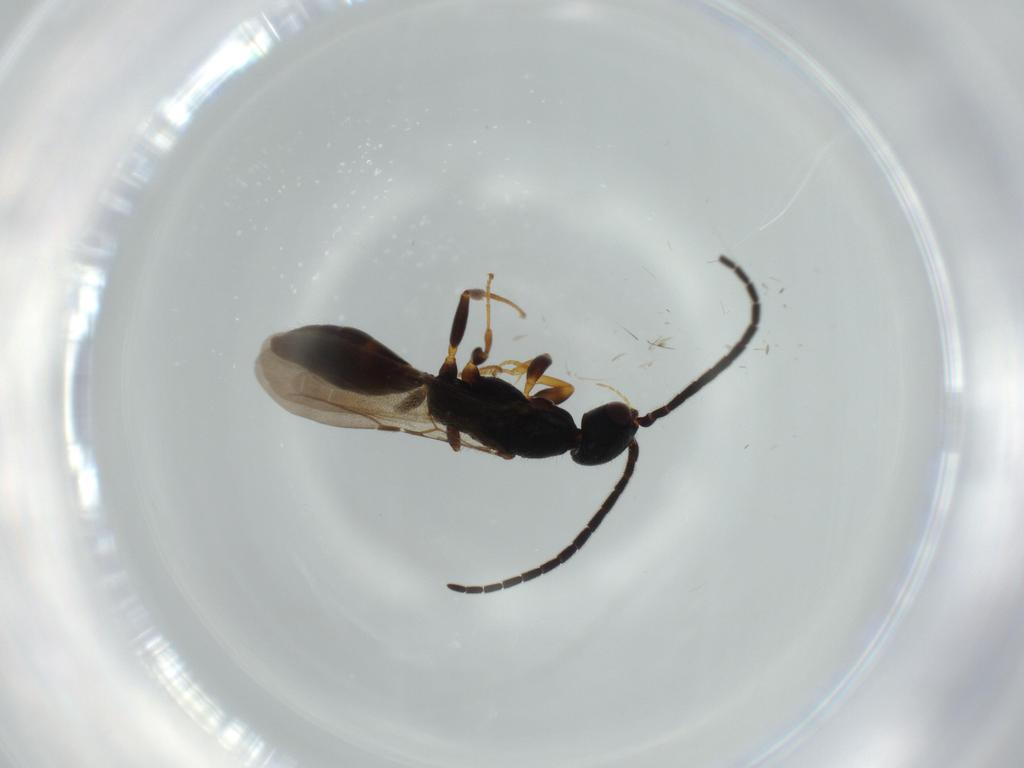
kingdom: Animalia
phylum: Arthropoda
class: Insecta
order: Hymenoptera
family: Bethylidae
